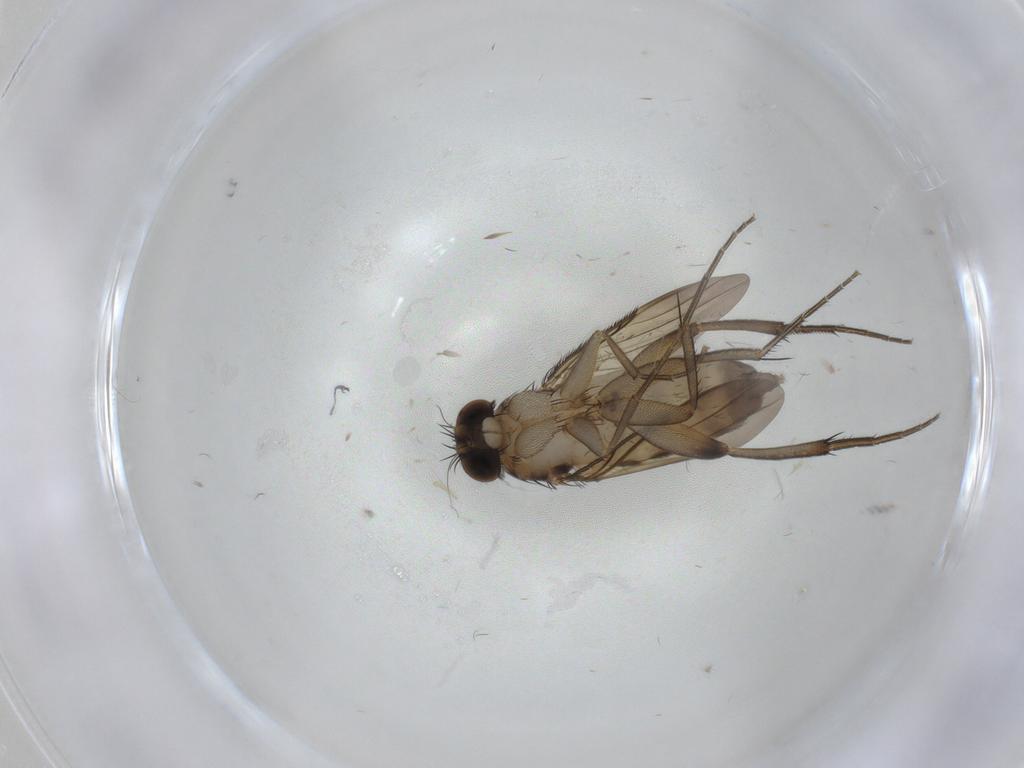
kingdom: Animalia
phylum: Arthropoda
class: Insecta
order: Diptera
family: Phoridae
